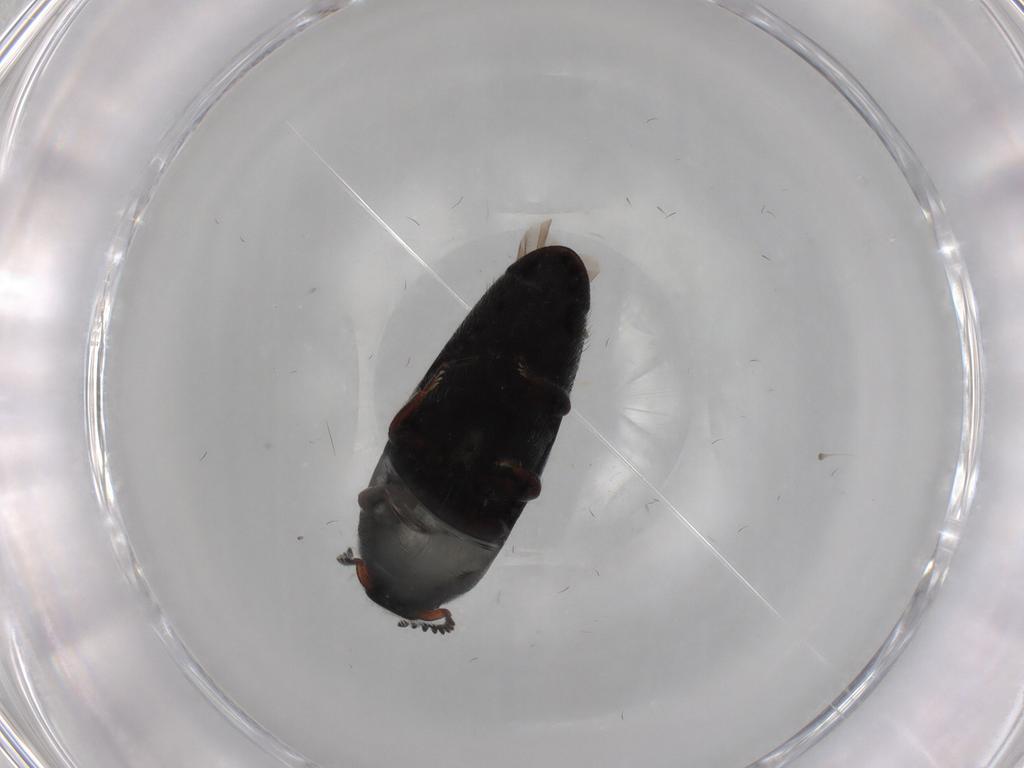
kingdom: Animalia
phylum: Arthropoda
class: Insecta
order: Coleoptera
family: Elateridae
